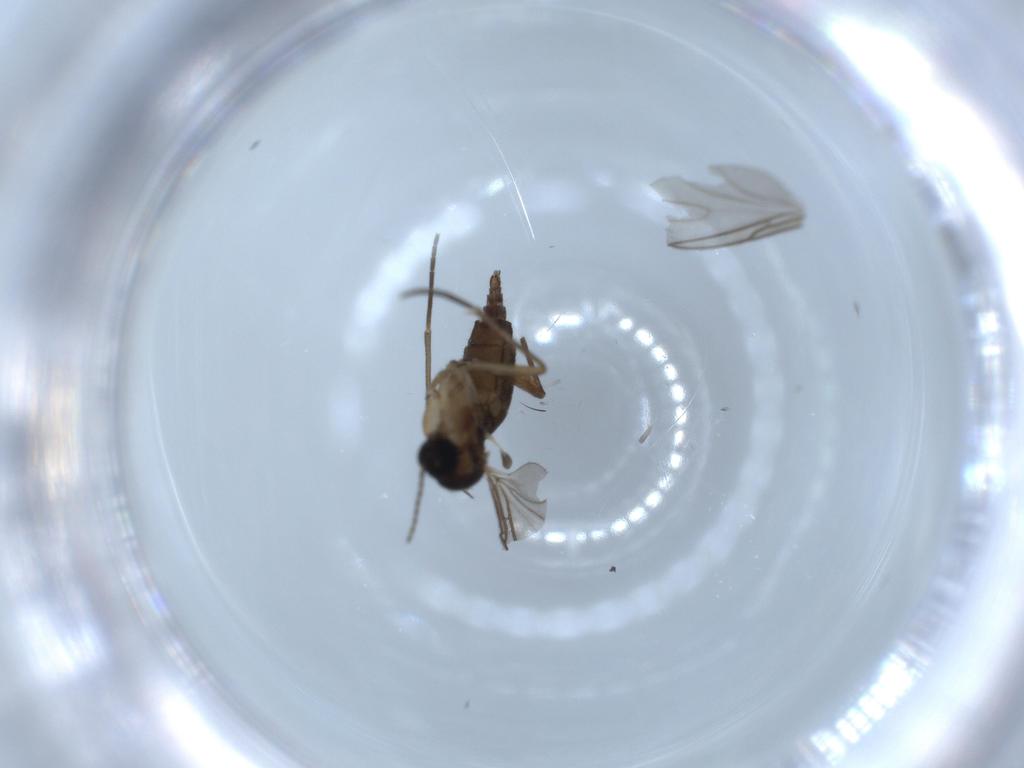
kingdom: Animalia
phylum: Arthropoda
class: Insecta
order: Diptera
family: Sciaridae
